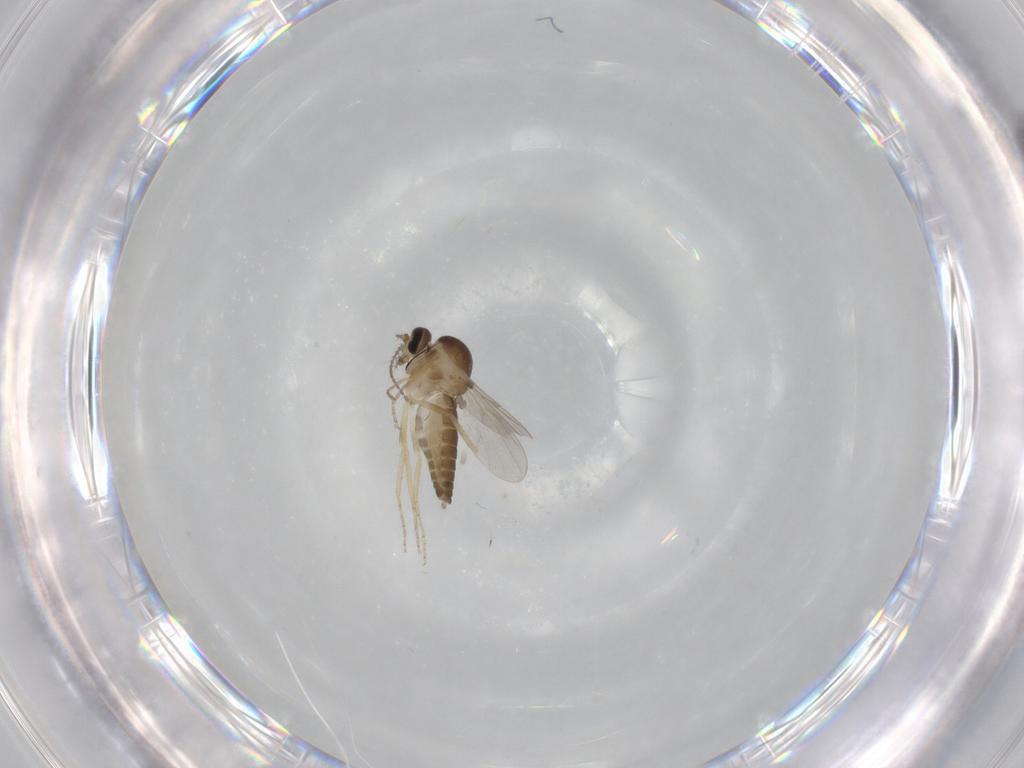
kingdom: Animalia
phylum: Arthropoda
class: Insecta
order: Diptera
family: Ceratopogonidae
